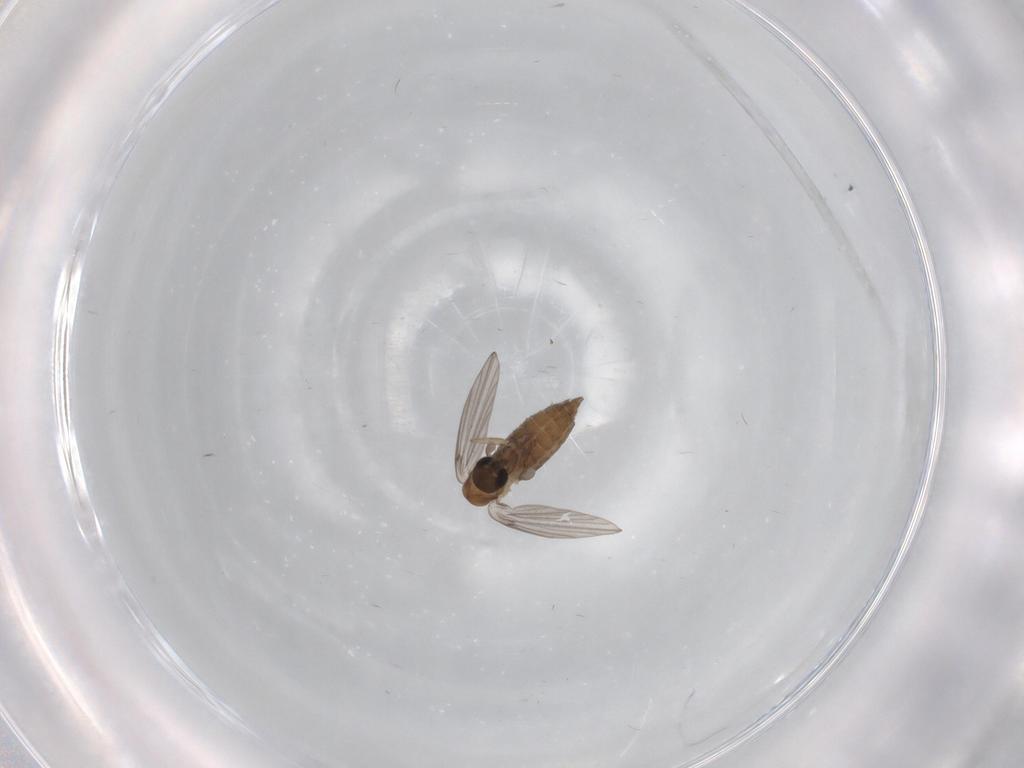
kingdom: Animalia
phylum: Arthropoda
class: Insecta
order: Diptera
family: Psychodidae
